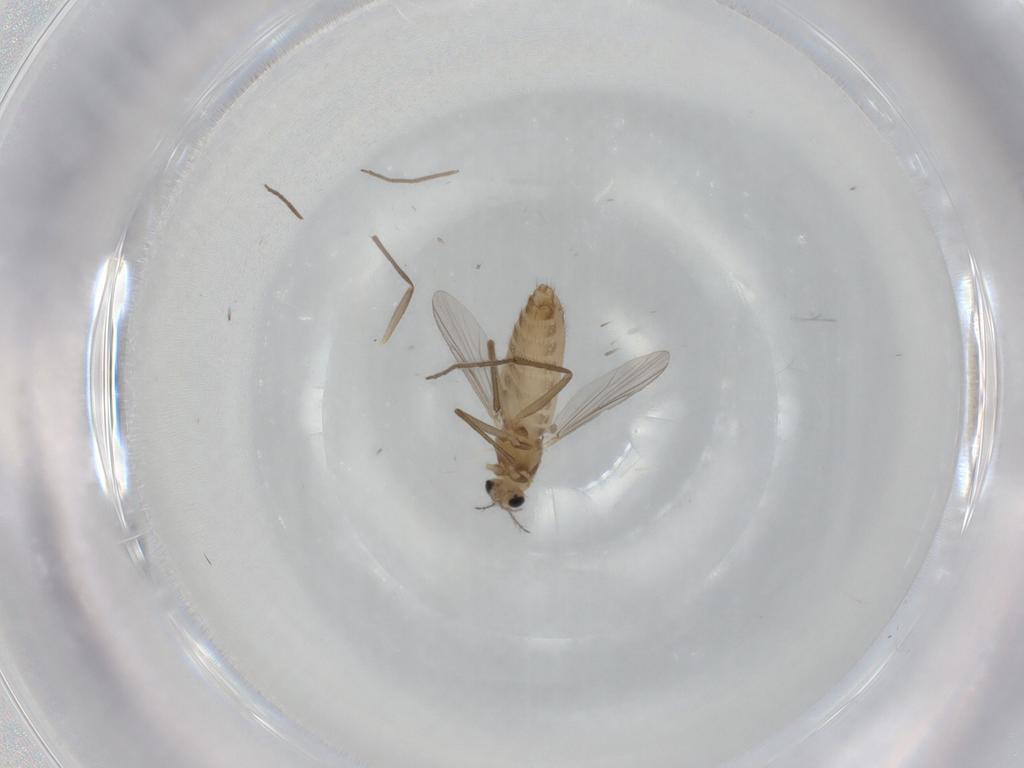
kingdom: Animalia
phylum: Arthropoda
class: Insecta
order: Diptera
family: Chironomidae
